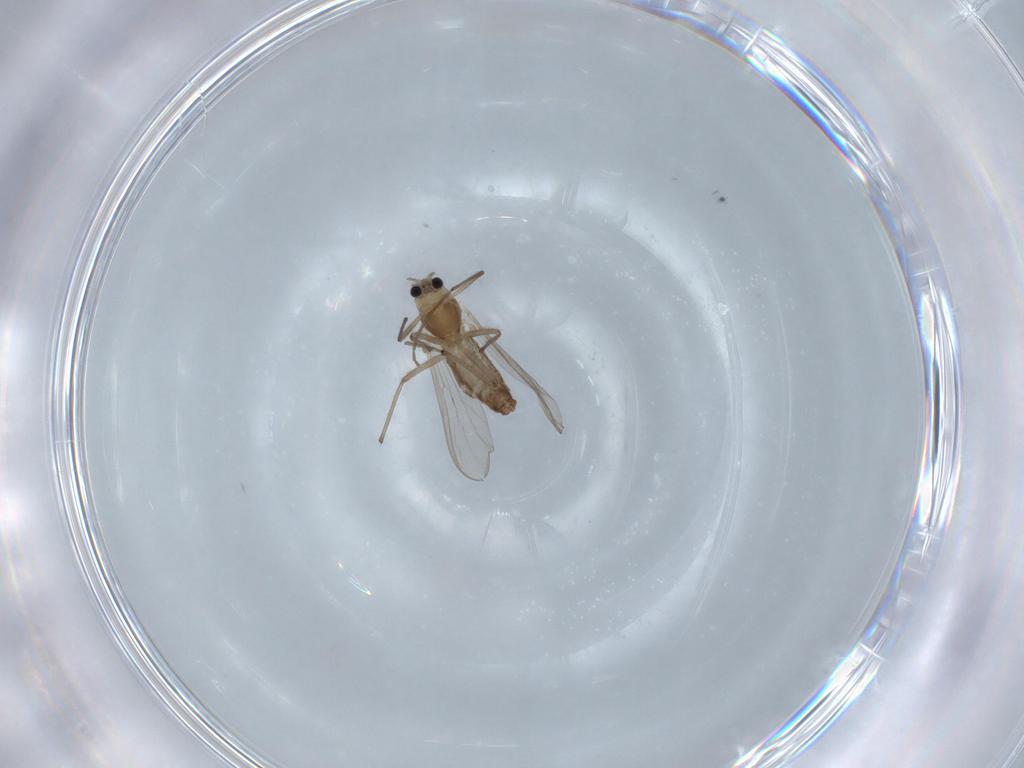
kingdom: Animalia
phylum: Arthropoda
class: Insecta
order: Diptera
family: Chironomidae
